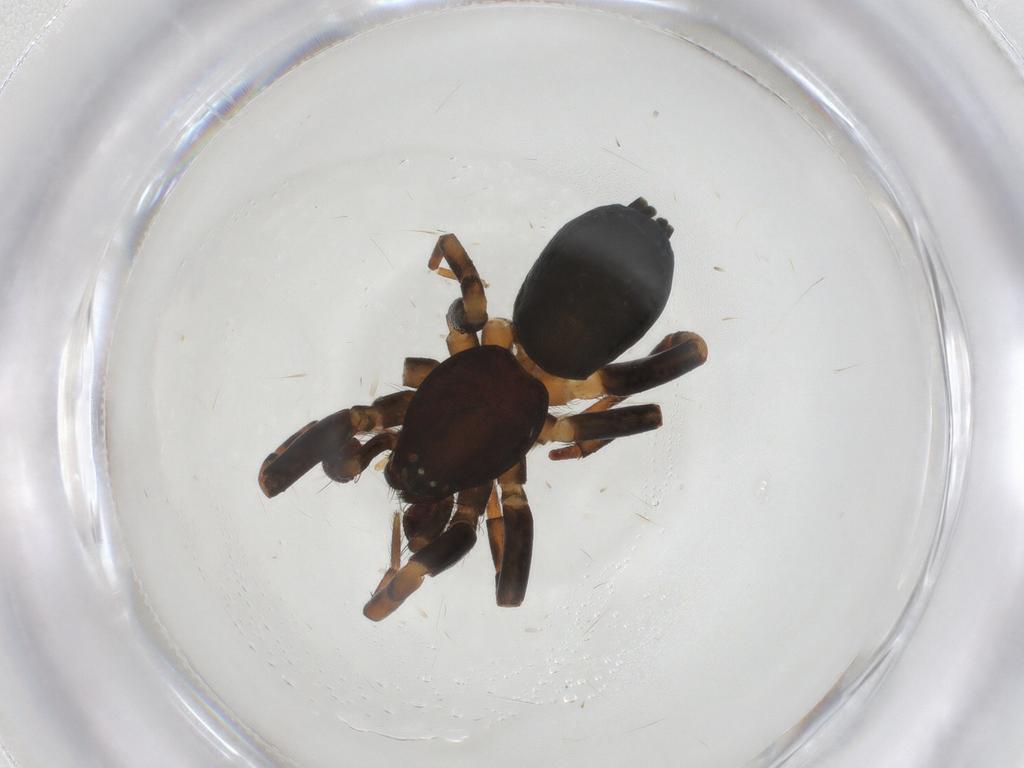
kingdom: Animalia
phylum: Arthropoda
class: Arachnida
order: Araneae
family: Gnaphosidae
